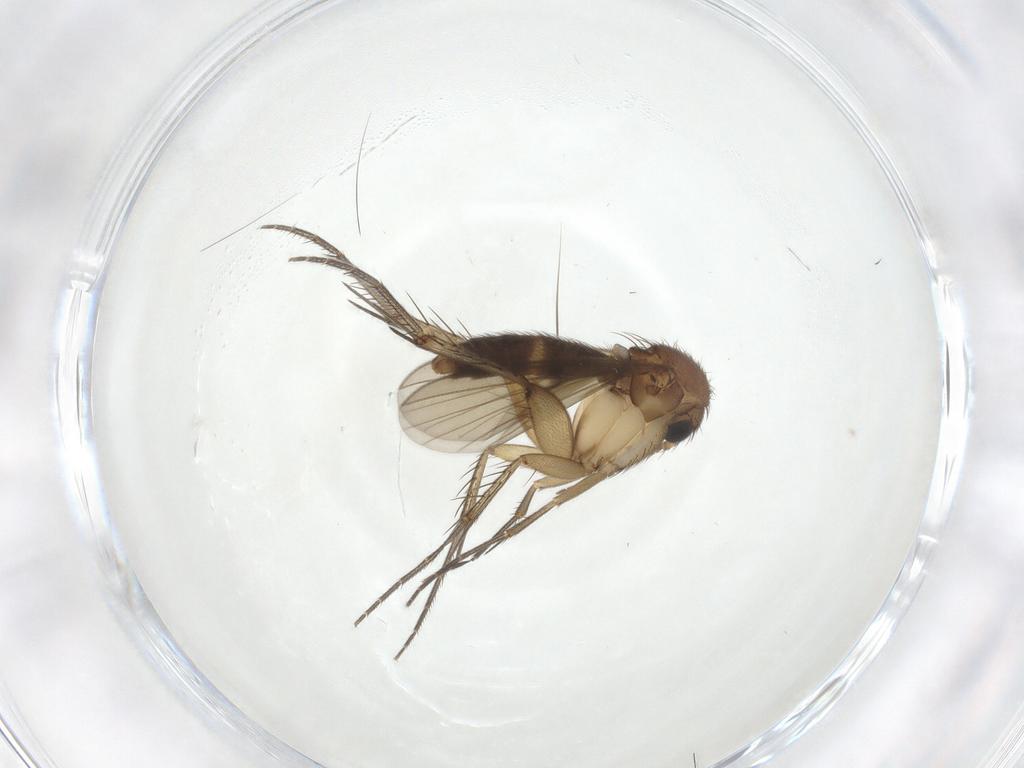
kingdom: Animalia
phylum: Arthropoda
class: Insecta
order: Diptera
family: Mycetophilidae
